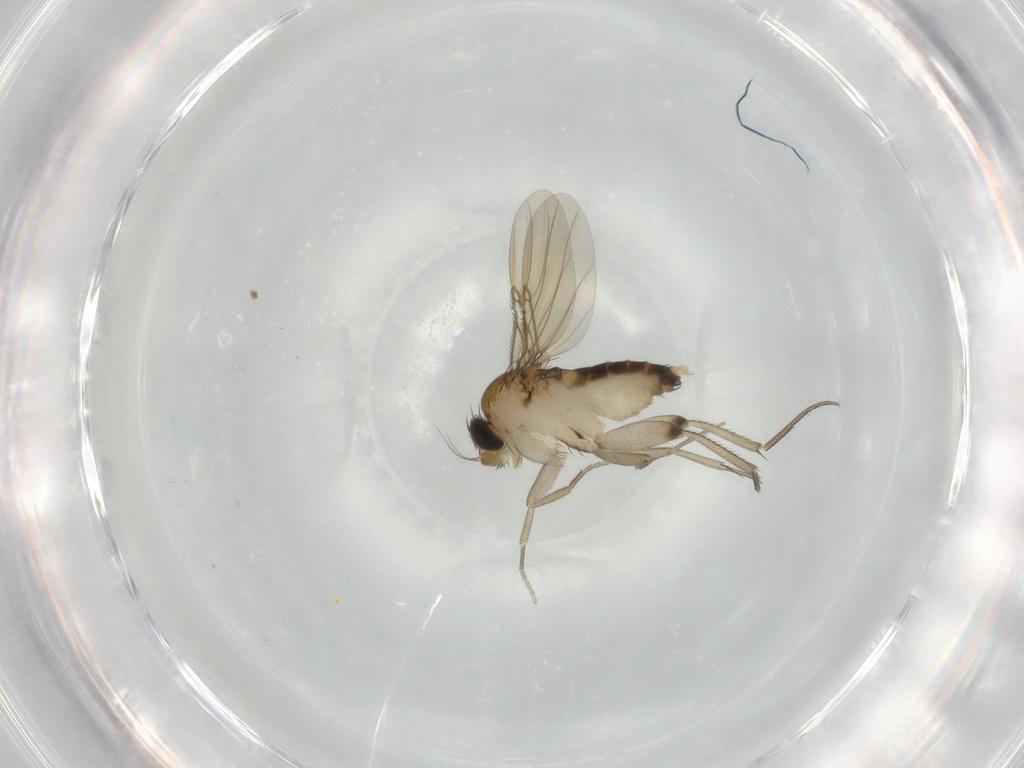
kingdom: Animalia
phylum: Arthropoda
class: Insecta
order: Diptera
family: Phoridae
